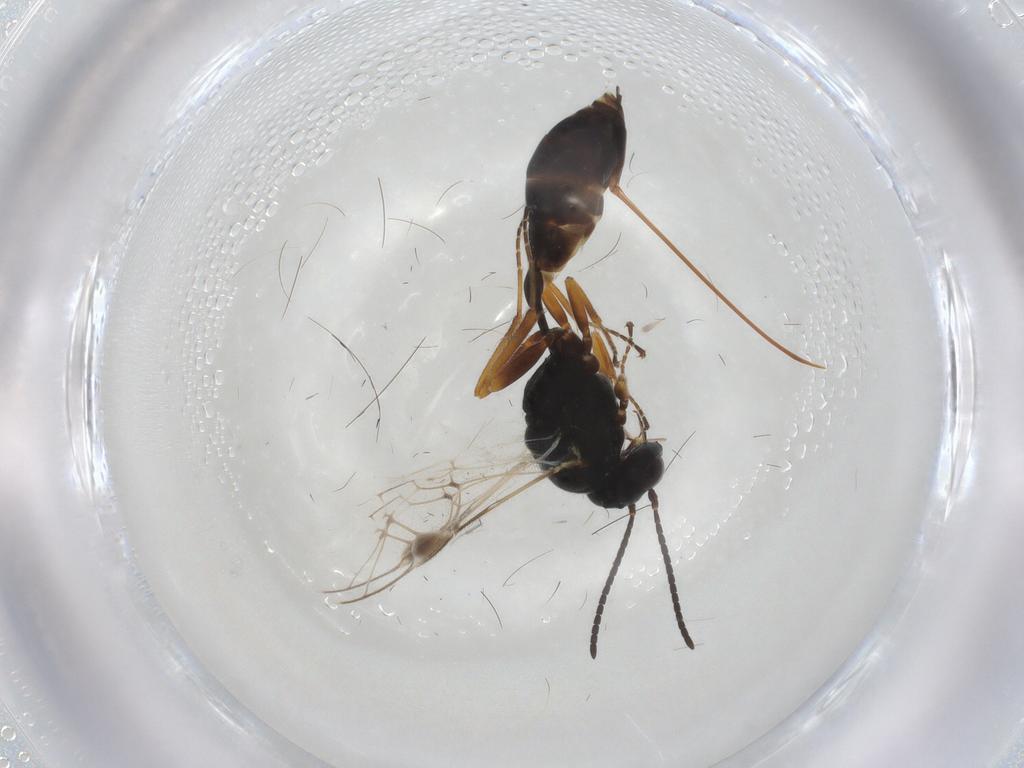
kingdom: Animalia
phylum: Arthropoda
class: Insecta
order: Hymenoptera
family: Ichneumonidae
